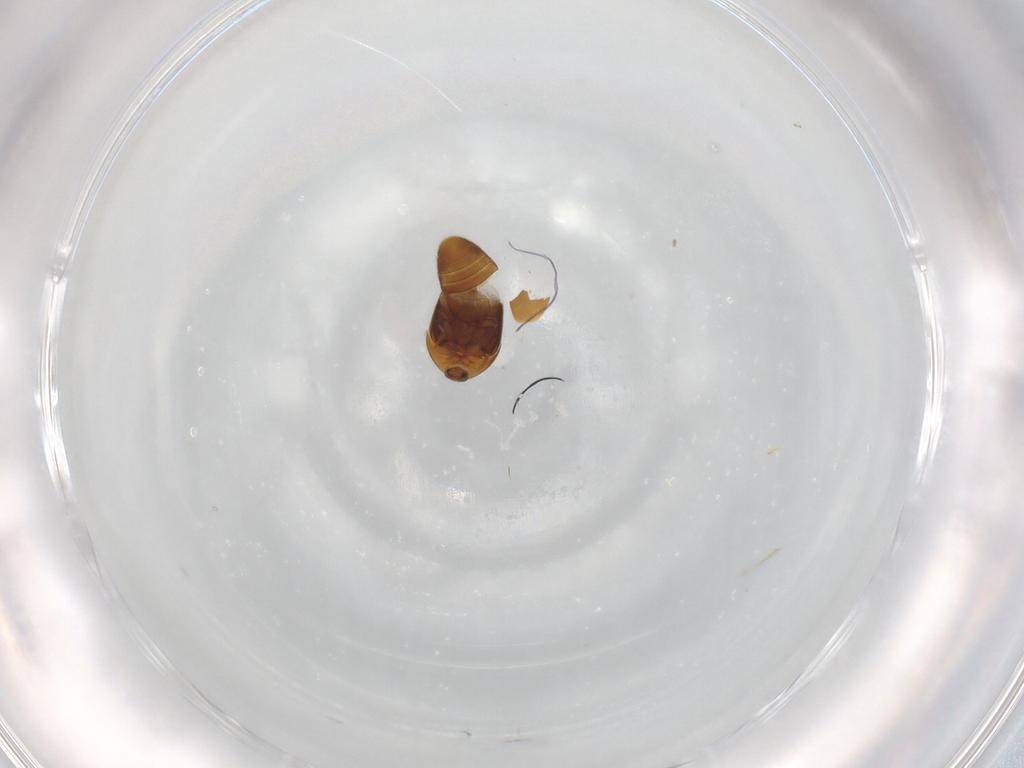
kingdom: Animalia
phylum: Arthropoda
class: Insecta
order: Coleoptera
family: Corylophidae
